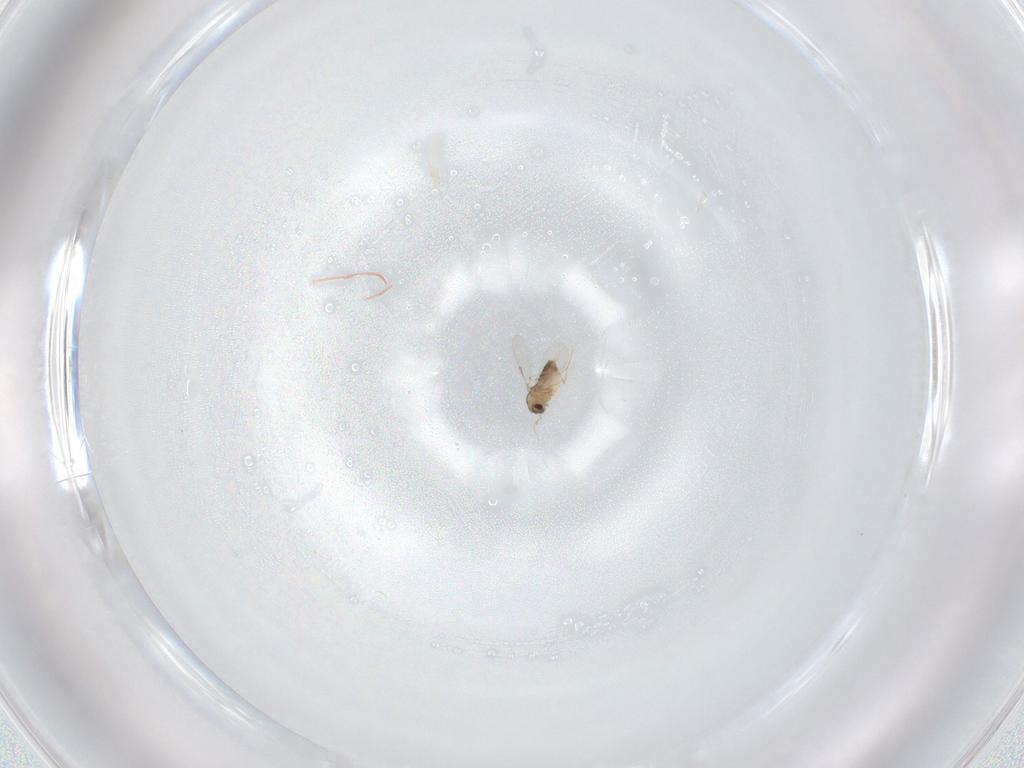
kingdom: Animalia
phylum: Arthropoda
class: Insecta
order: Diptera
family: Chironomidae
